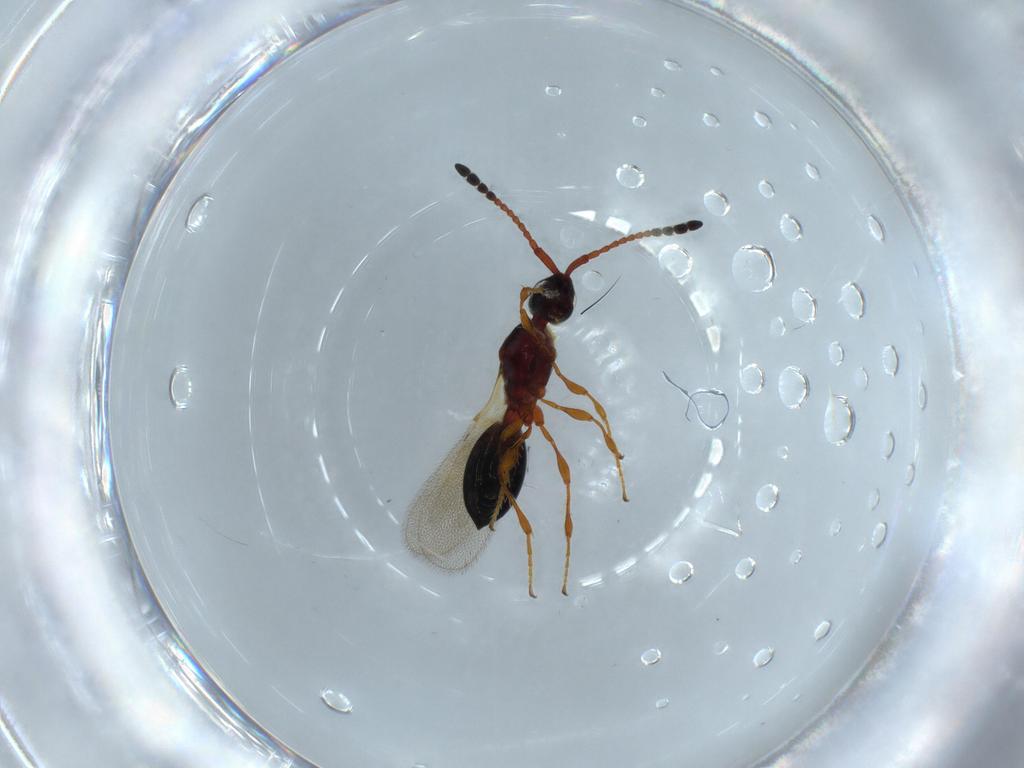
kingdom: Animalia
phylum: Arthropoda
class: Insecta
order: Hymenoptera
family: Diapriidae
